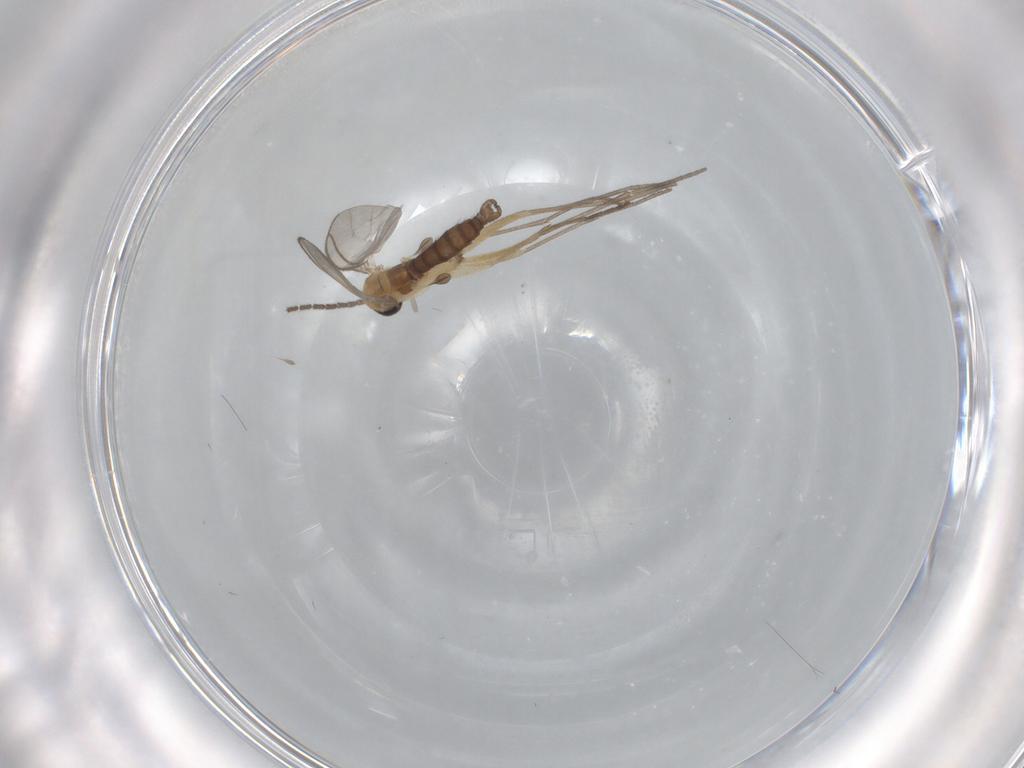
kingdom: Animalia
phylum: Arthropoda
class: Insecta
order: Diptera
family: Sciaridae
